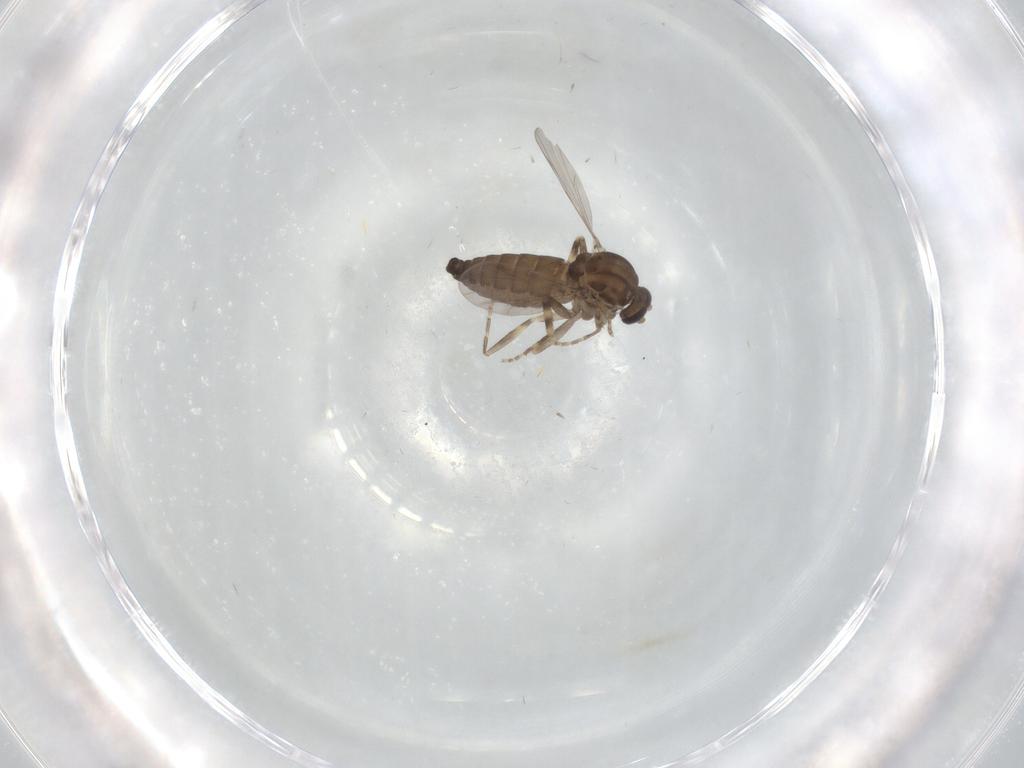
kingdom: Animalia
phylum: Arthropoda
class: Insecta
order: Diptera
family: Ceratopogonidae
